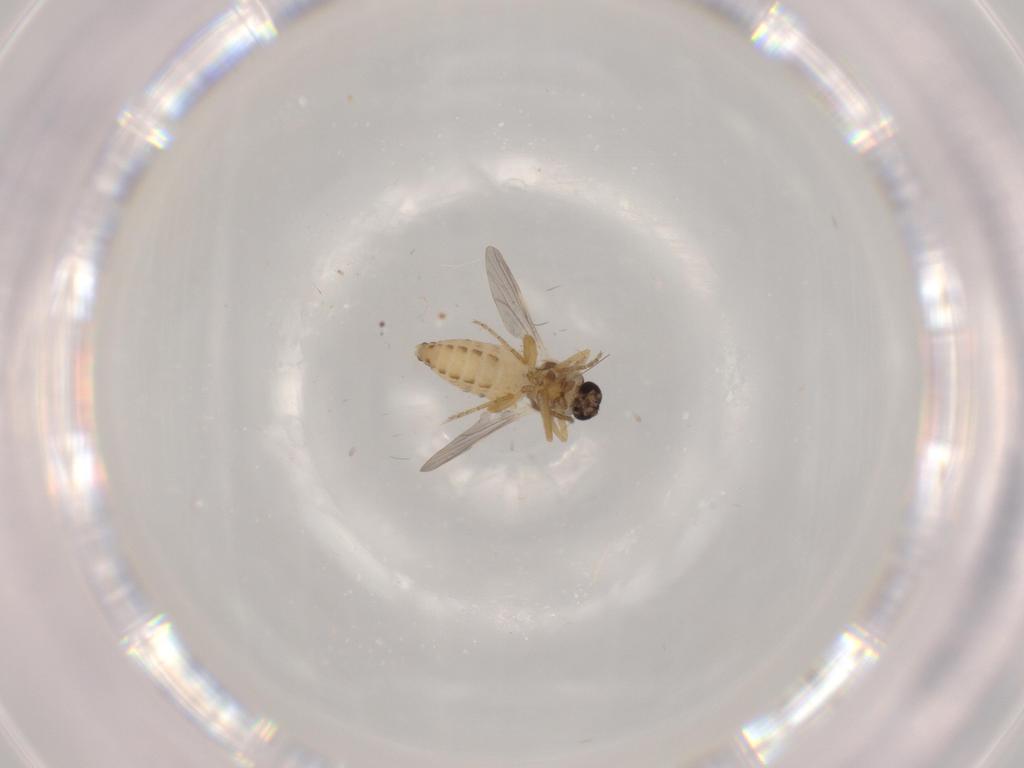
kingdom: Animalia
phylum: Arthropoda
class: Insecta
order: Diptera
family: Ceratopogonidae
